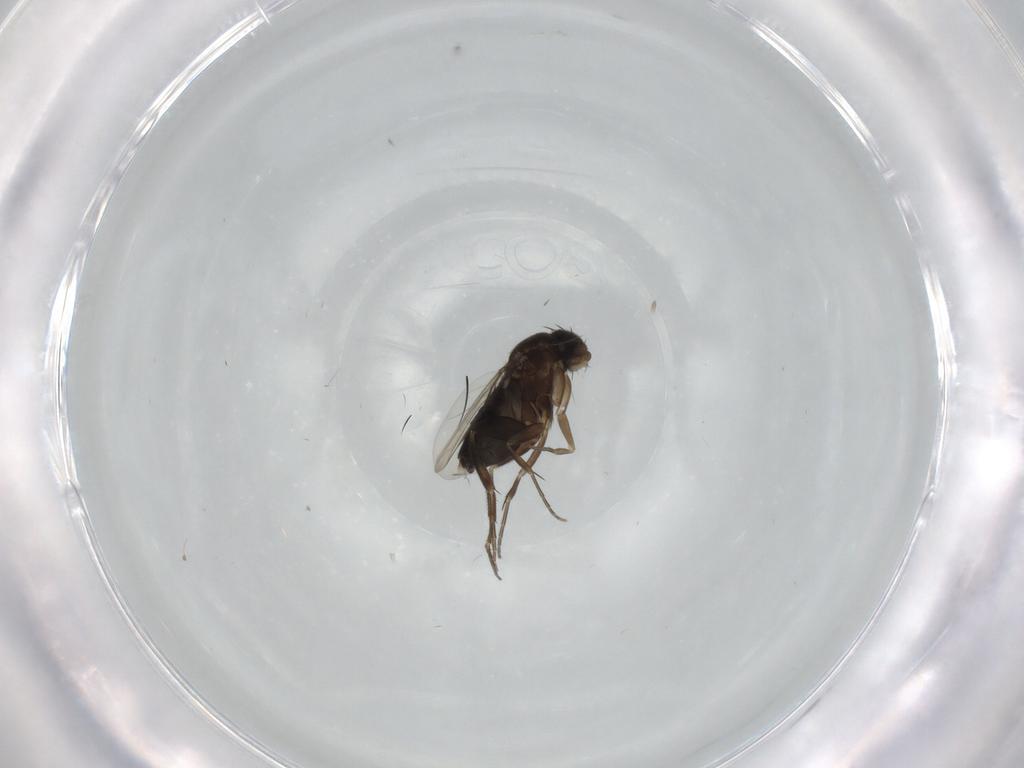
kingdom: Animalia
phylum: Arthropoda
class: Insecta
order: Diptera
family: Phoridae
